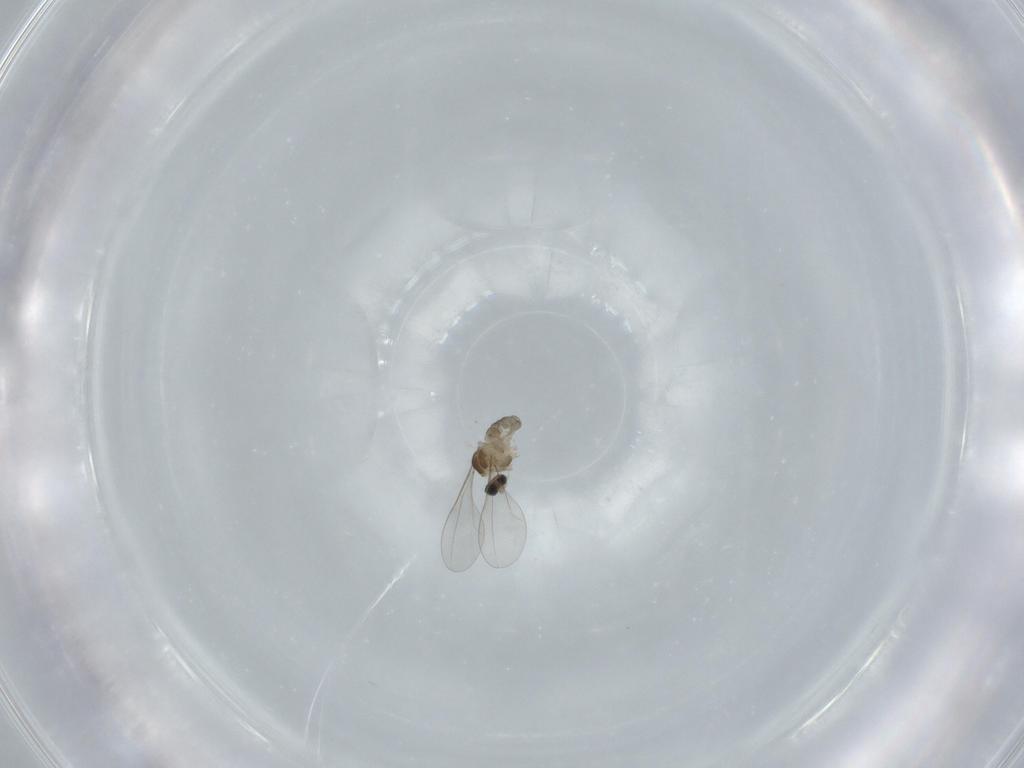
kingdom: Animalia
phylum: Arthropoda
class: Insecta
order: Diptera
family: Cecidomyiidae
